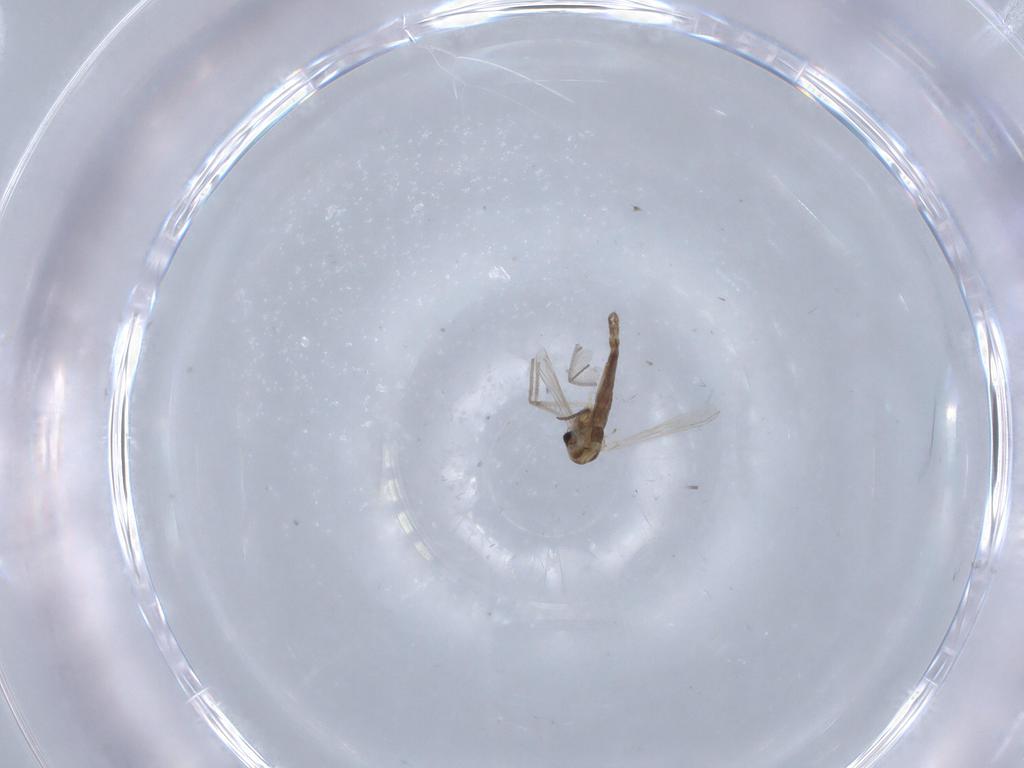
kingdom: Animalia
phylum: Arthropoda
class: Insecta
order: Diptera
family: Chironomidae
